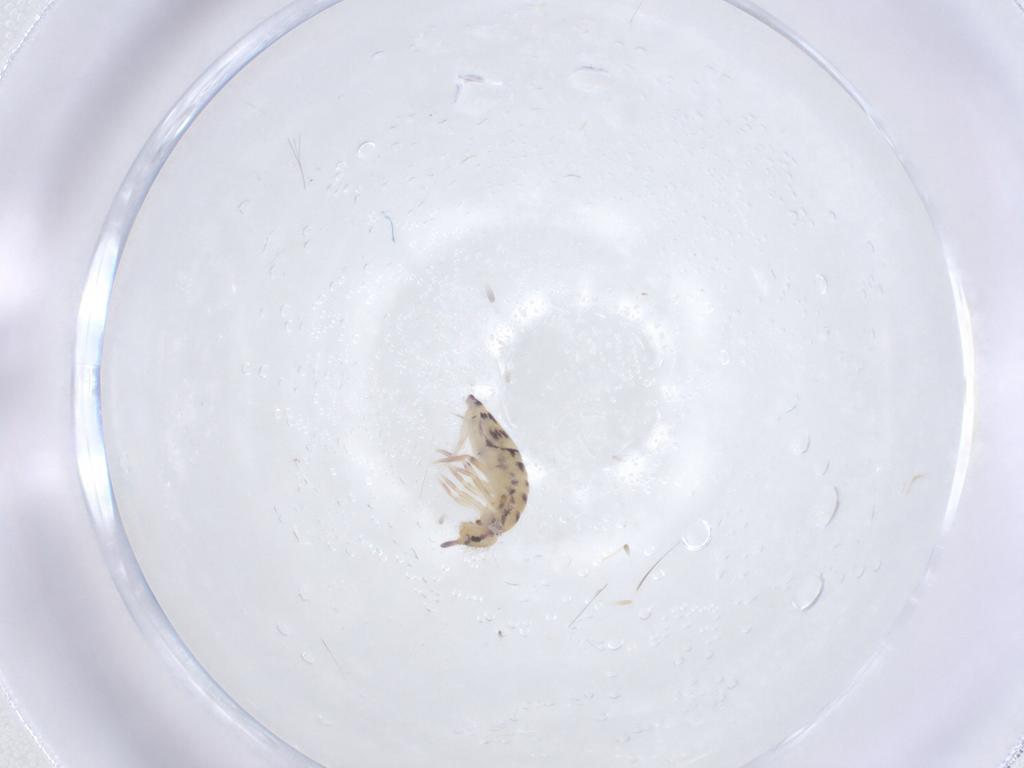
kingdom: Animalia
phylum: Arthropoda
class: Collembola
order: Entomobryomorpha
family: Entomobryidae
